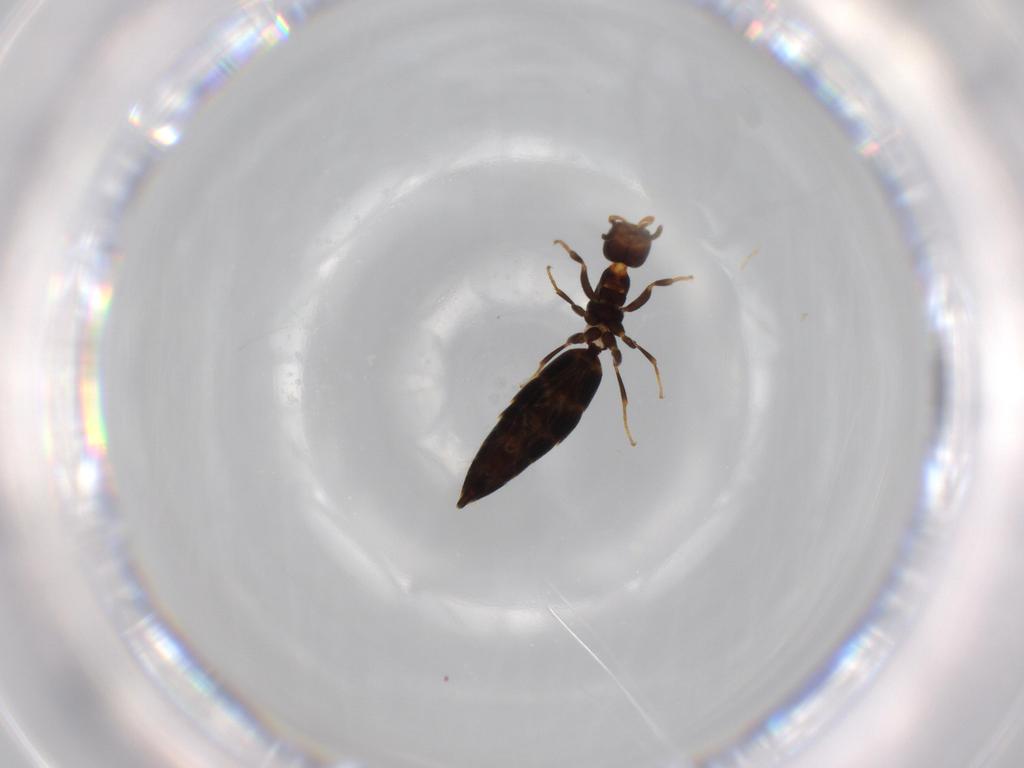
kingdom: Animalia
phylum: Arthropoda
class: Insecta
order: Hymenoptera
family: Bethylidae
